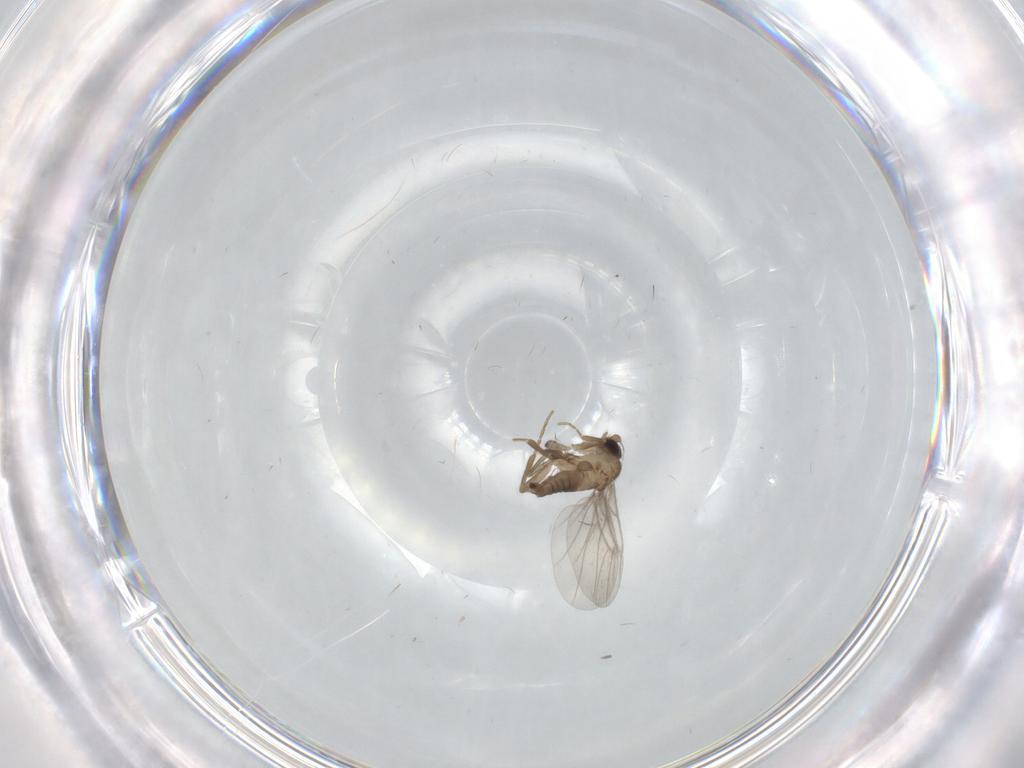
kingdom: Animalia
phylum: Arthropoda
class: Insecta
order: Diptera
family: Psychodidae
